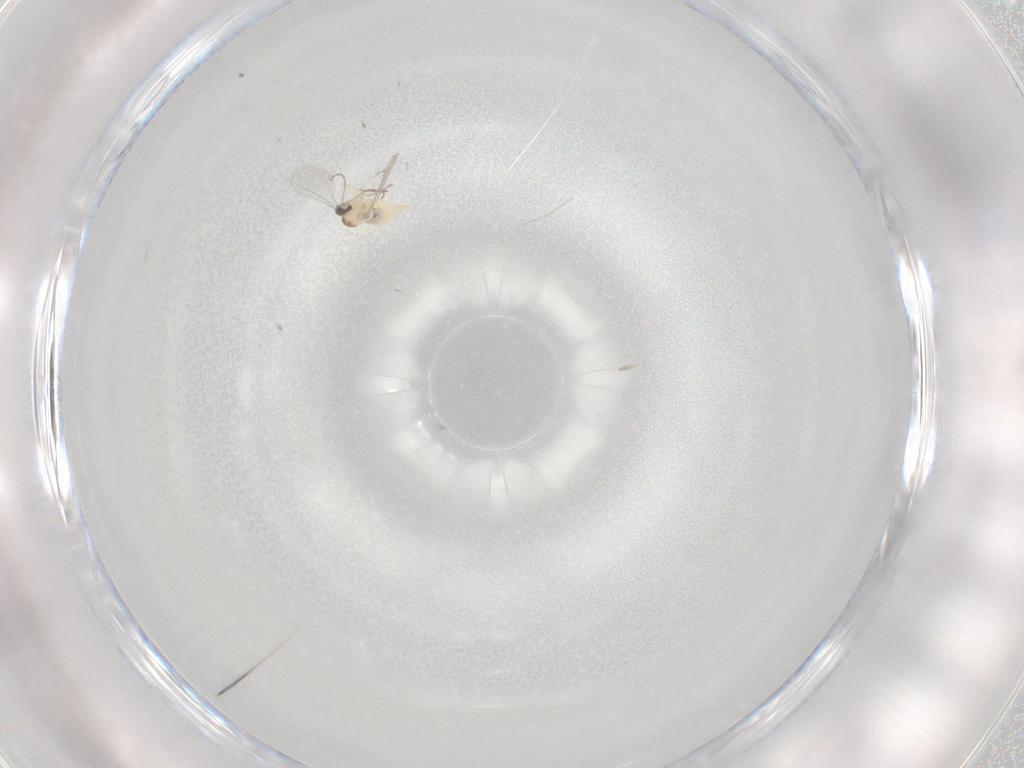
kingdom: Animalia
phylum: Arthropoda
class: Insecta
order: Diptera
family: Cecidomyiidae
